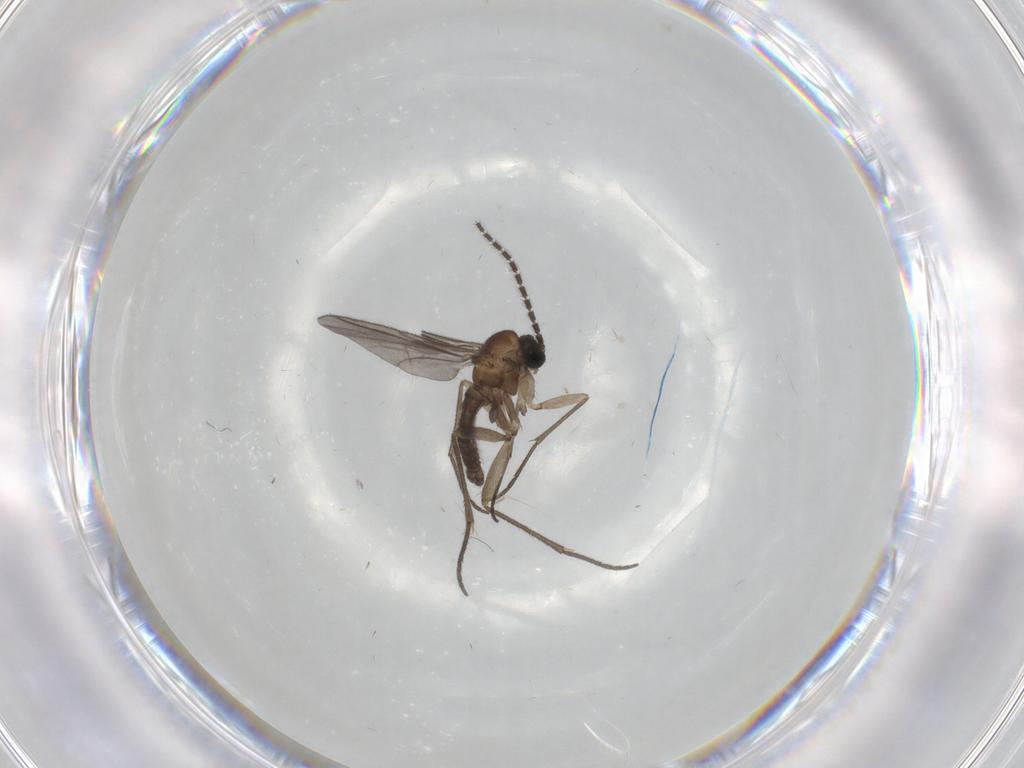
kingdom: Animalia
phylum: Arthropoda
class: Insecta
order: Diptera
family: Sciaridae
